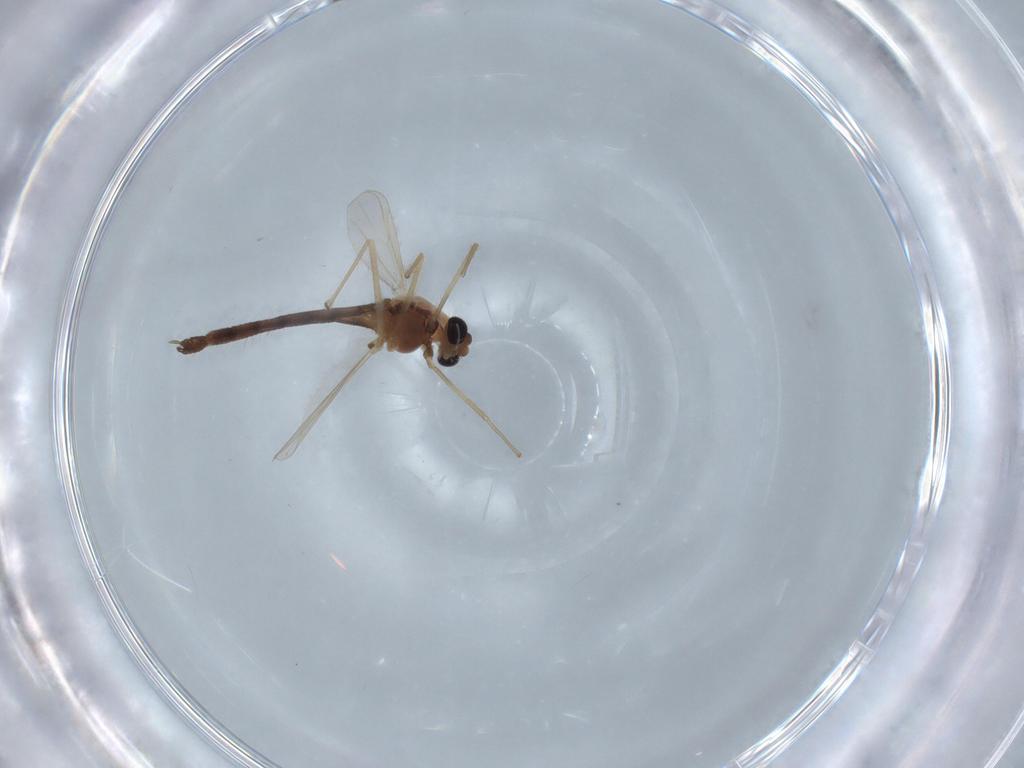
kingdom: Animalia
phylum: Arthropoda
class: Insecta
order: Diptera
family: Chironomidae
